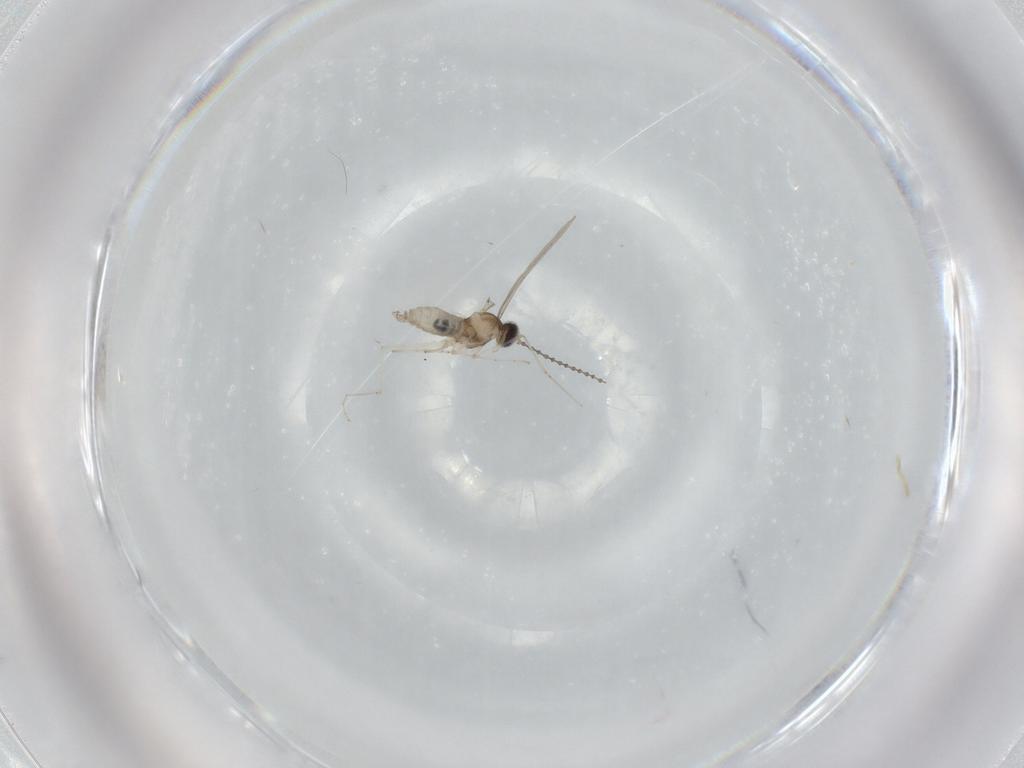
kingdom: Animalia
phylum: Arthropoda
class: Insecta
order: Diptera
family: Cecidomyiidae
